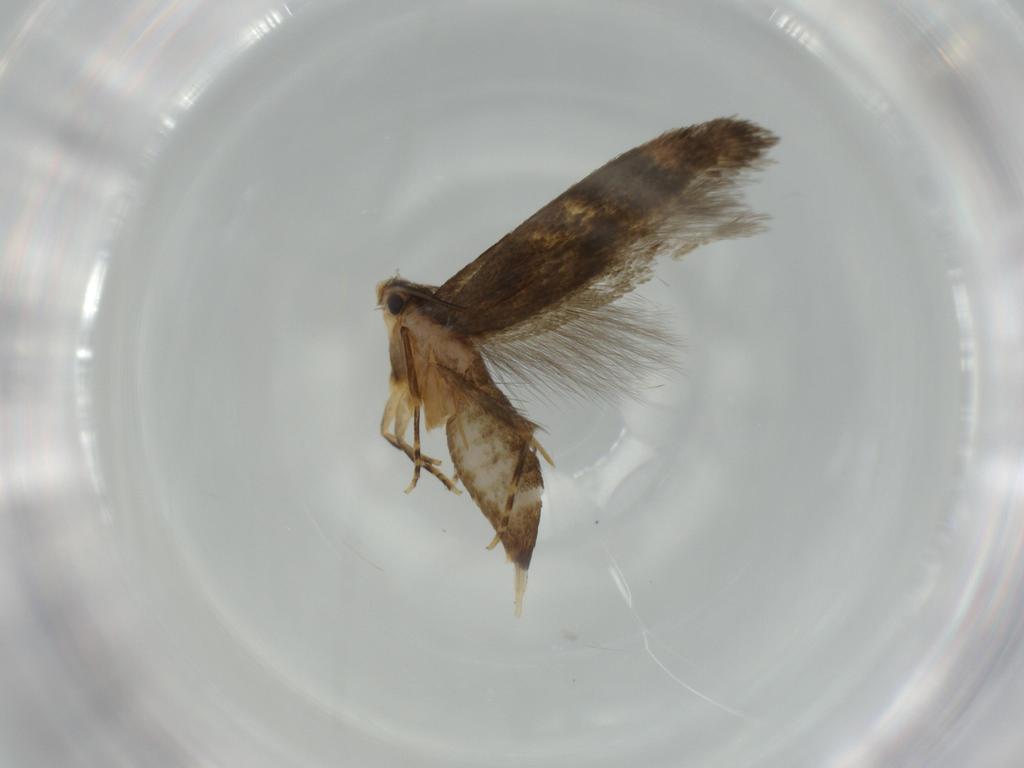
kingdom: Animalia
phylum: Arthropoda
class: Insecta
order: Lepidoptera
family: Tineidae
